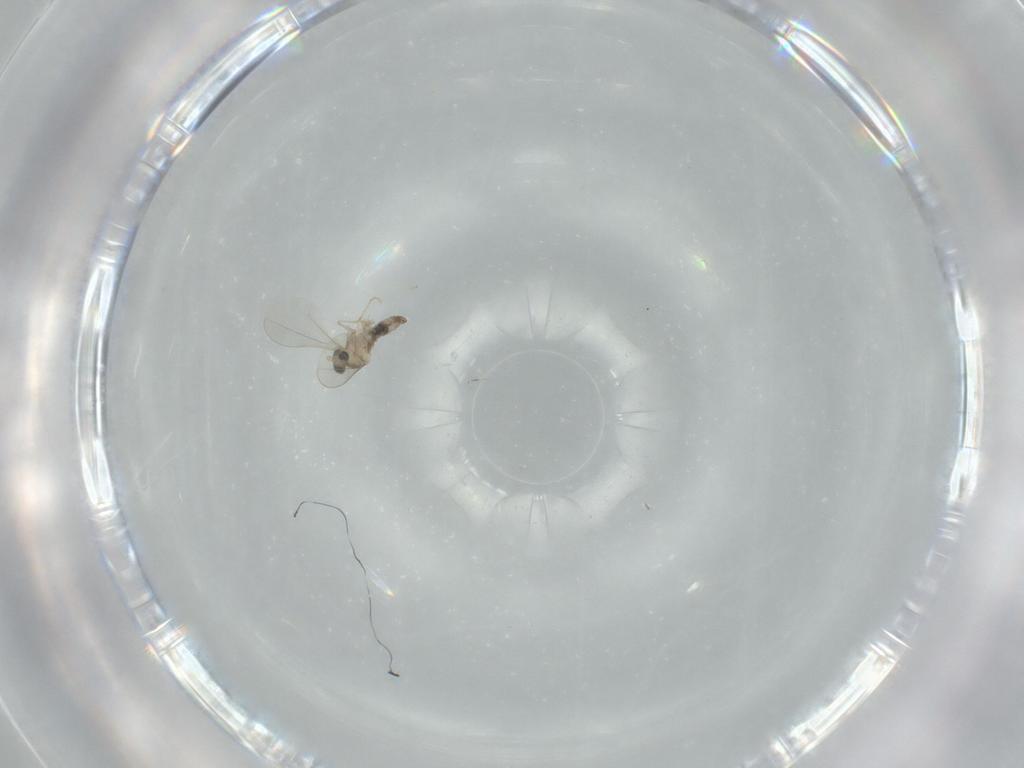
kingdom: Animalia
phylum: Arthropoda
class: Insecta
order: Diptera
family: Cecidomyiidae
